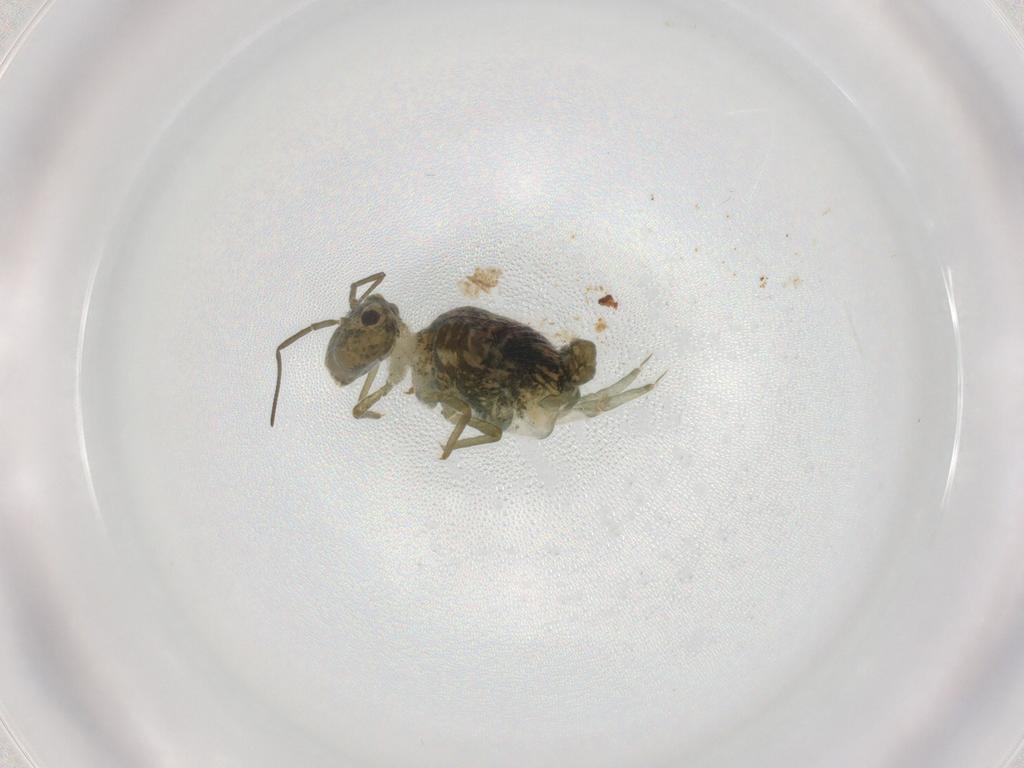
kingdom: Animalia
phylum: Arthropoda
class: Collembola
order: Symphypleona
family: Sminthuridae
